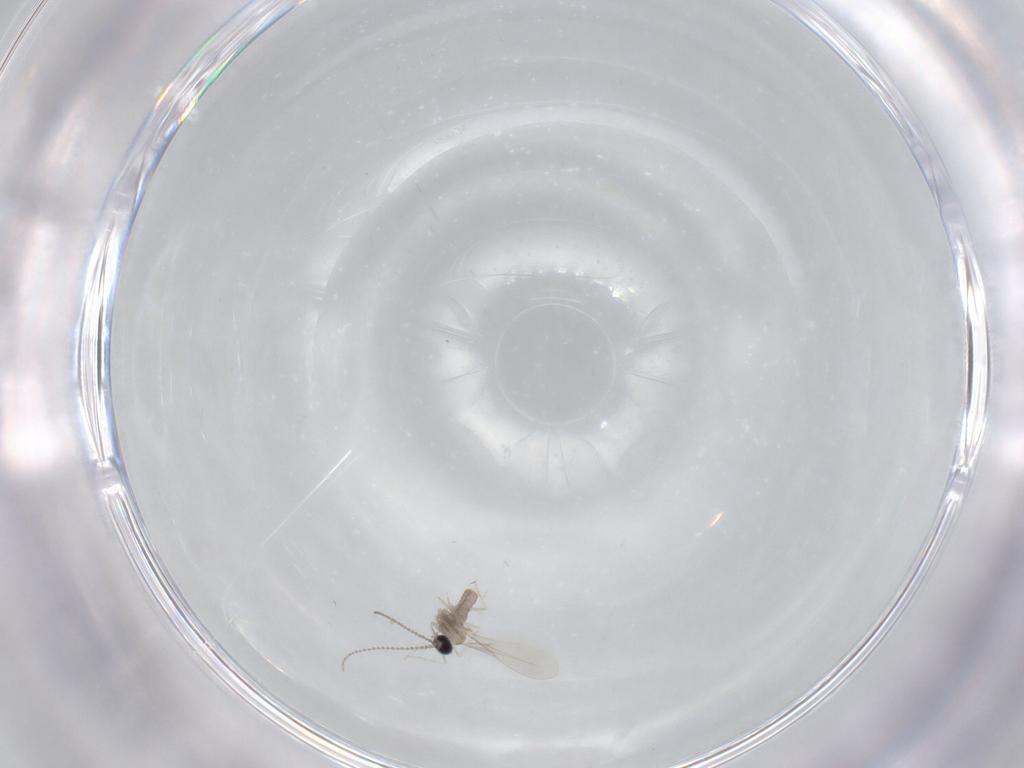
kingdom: Animalia
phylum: Arthropoda
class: Insecta
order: Diptera
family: Cecidomyiidae
